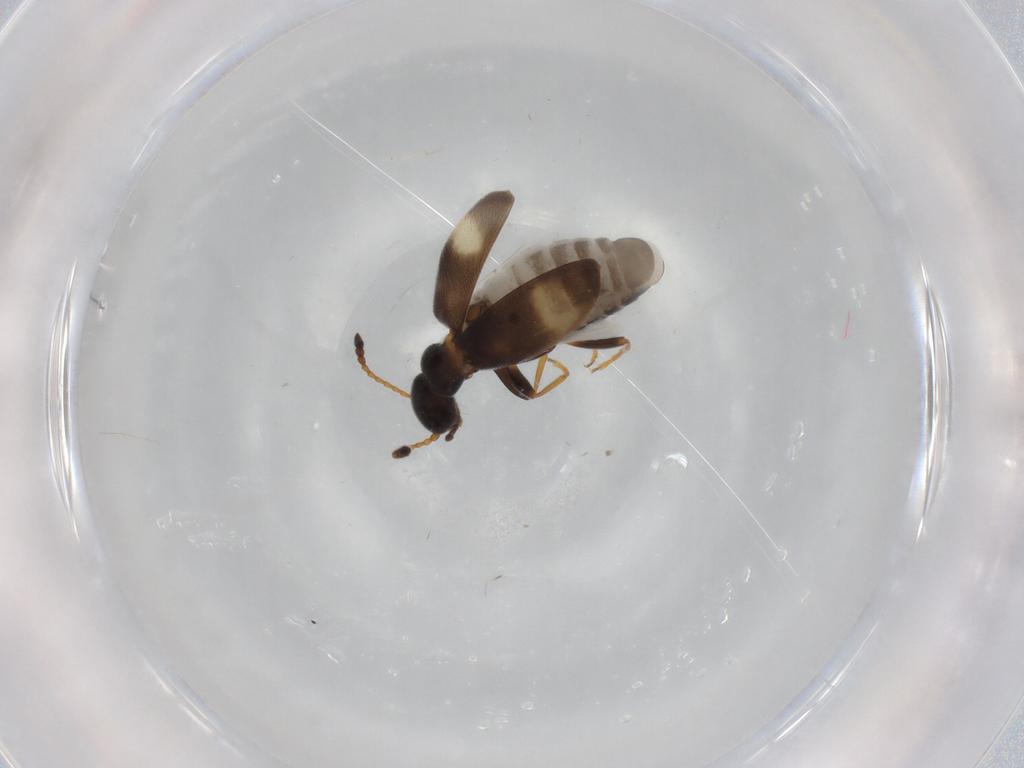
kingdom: Animalia
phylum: Arthropoda
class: Insecta
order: Coleoptera
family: Anthicidae
